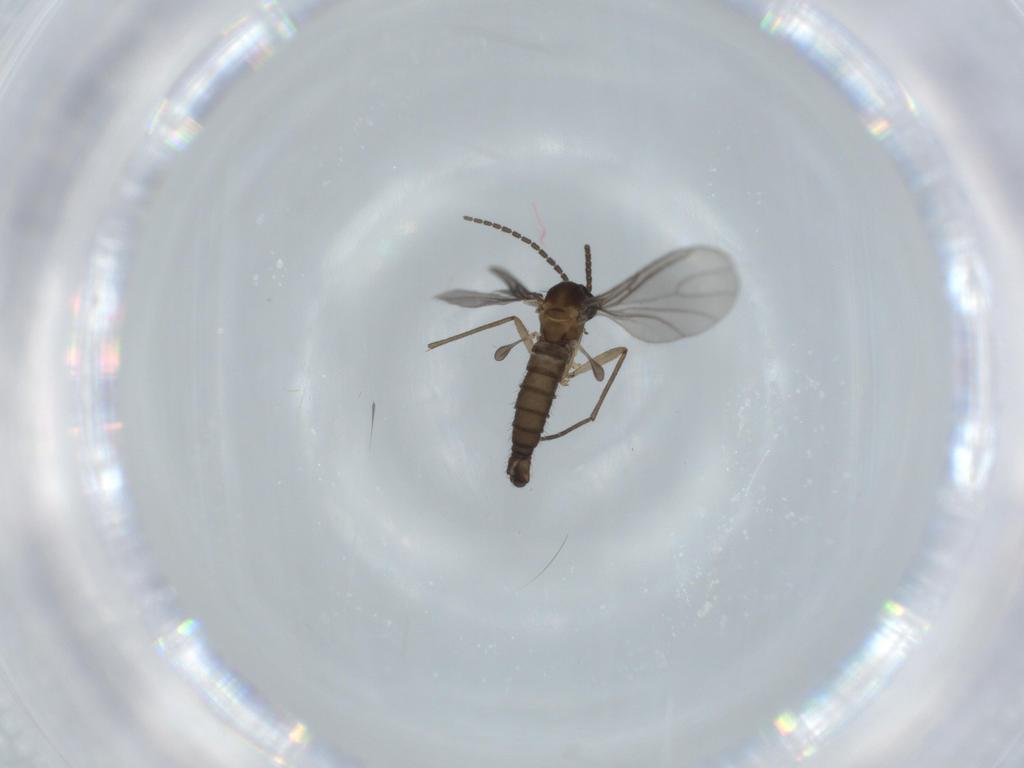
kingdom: Animalia
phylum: Arthropoda
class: Insecta
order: Diptera
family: Sciaridae
